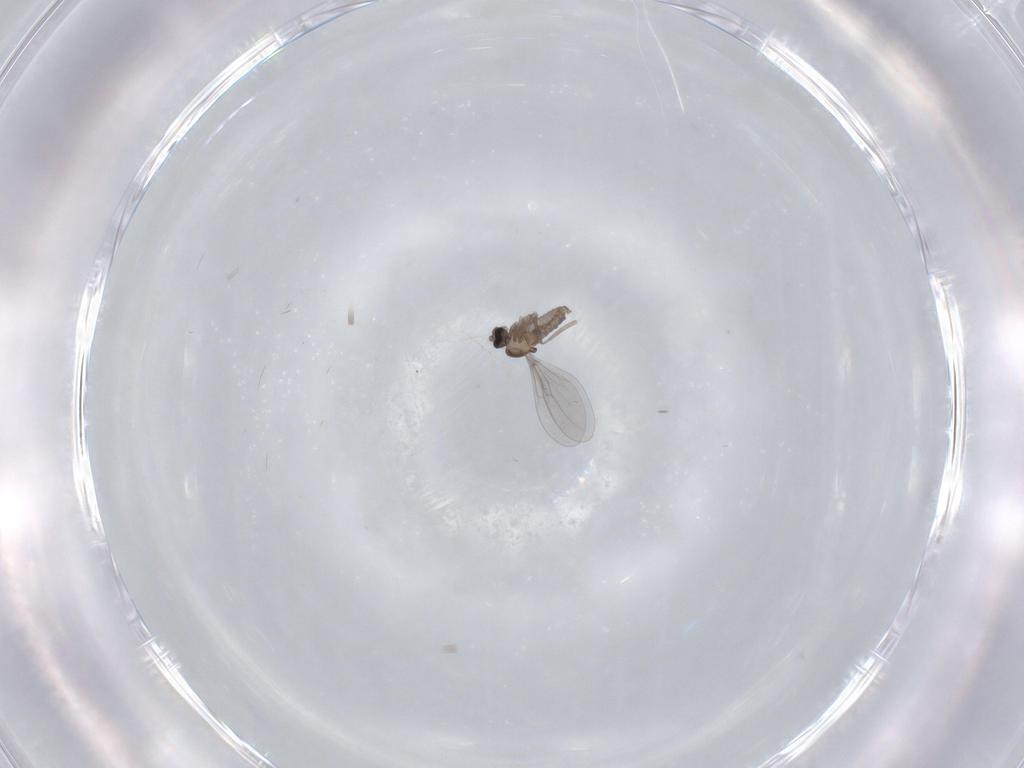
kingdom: Animalia
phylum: Arthropoda
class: Insecta
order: Diptera
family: Cecidomyiidae
